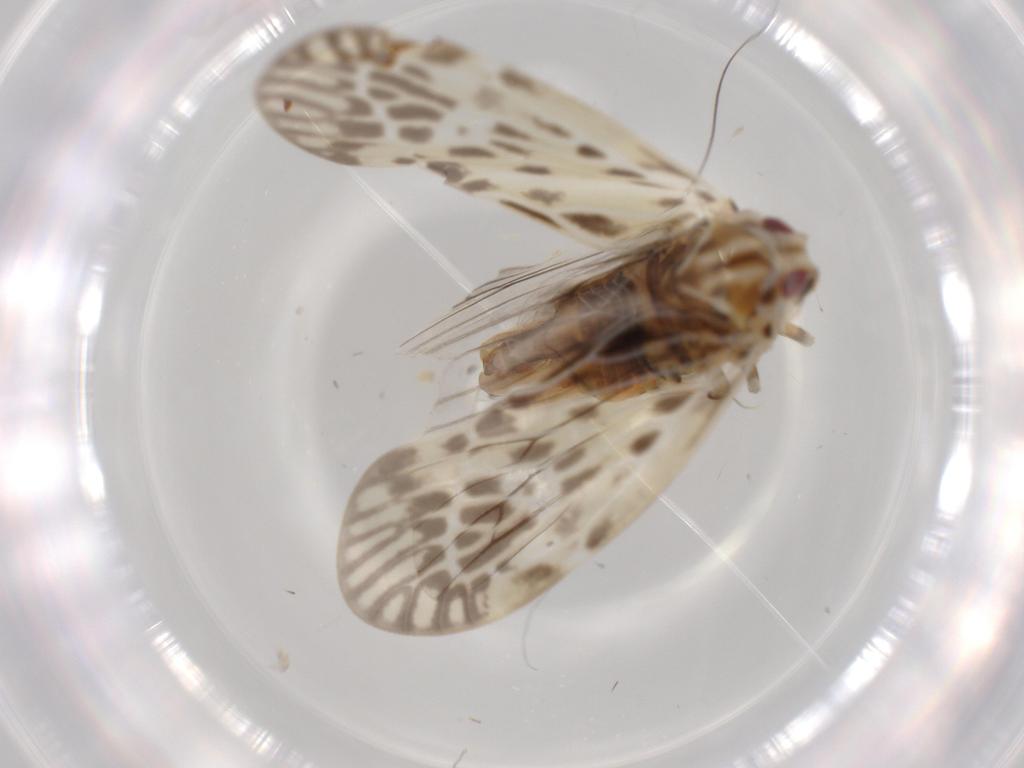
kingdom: Animalia
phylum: Arthropoda
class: Insecta
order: Hemiptera
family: Derbidae
